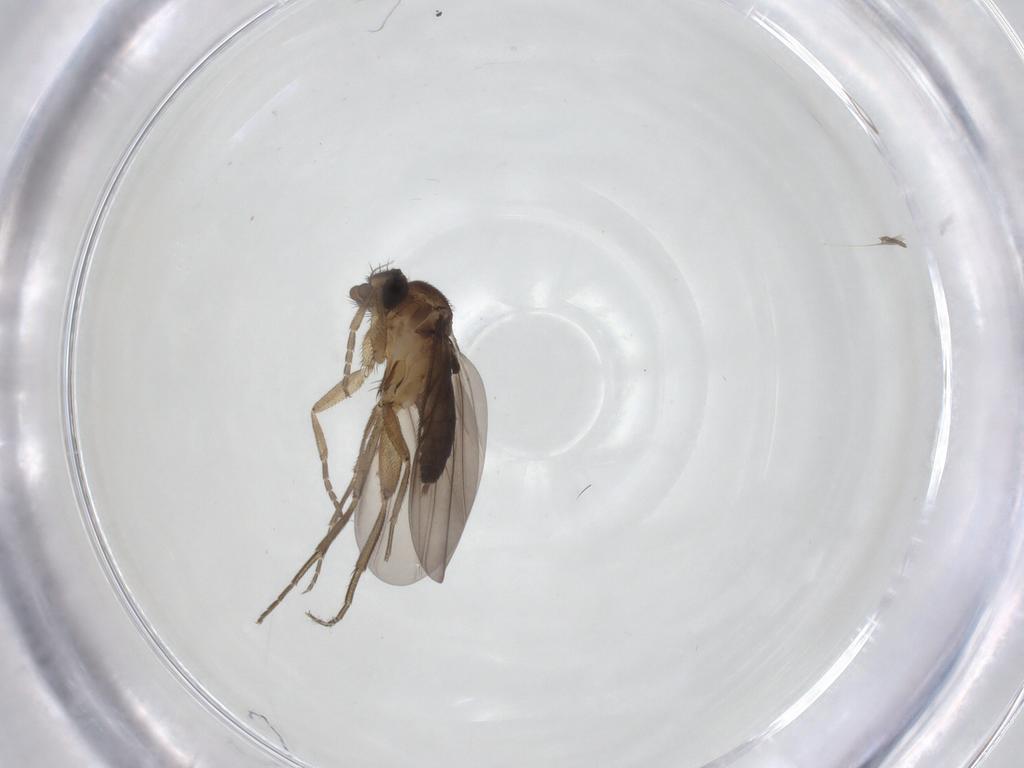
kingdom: Animalia
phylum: Arthropoda
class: Insecta
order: Diptera
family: Phoridae
